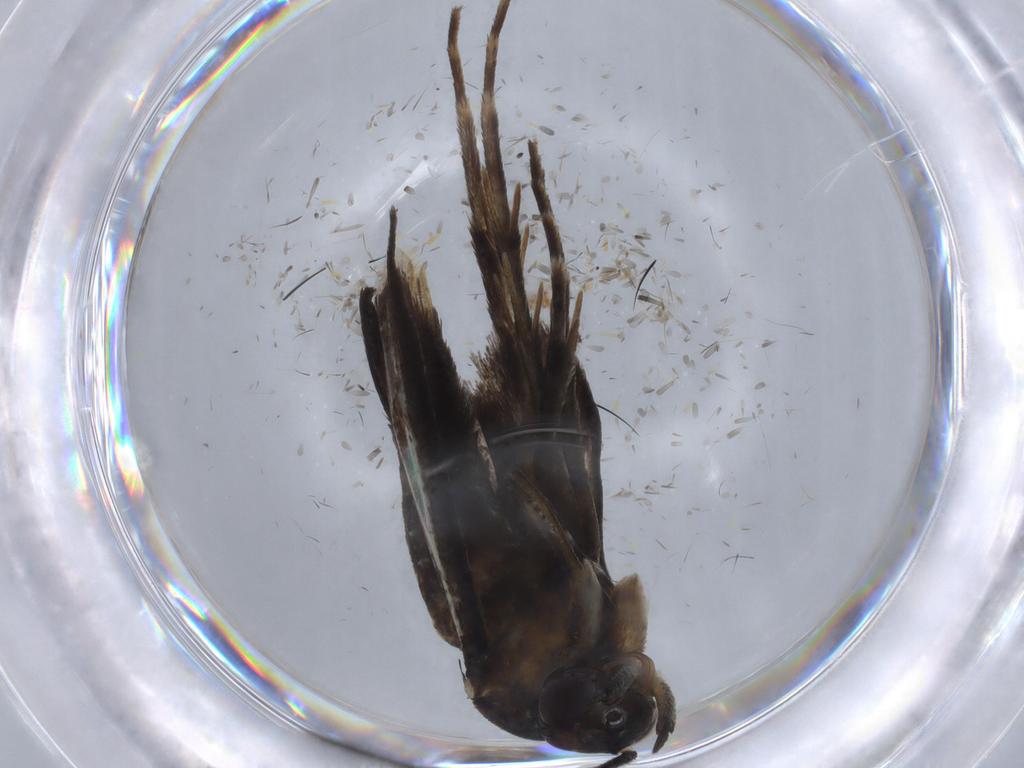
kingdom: Animalia
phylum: Arthropoda
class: Insecta
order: Lepidoptera
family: Sesiidae
